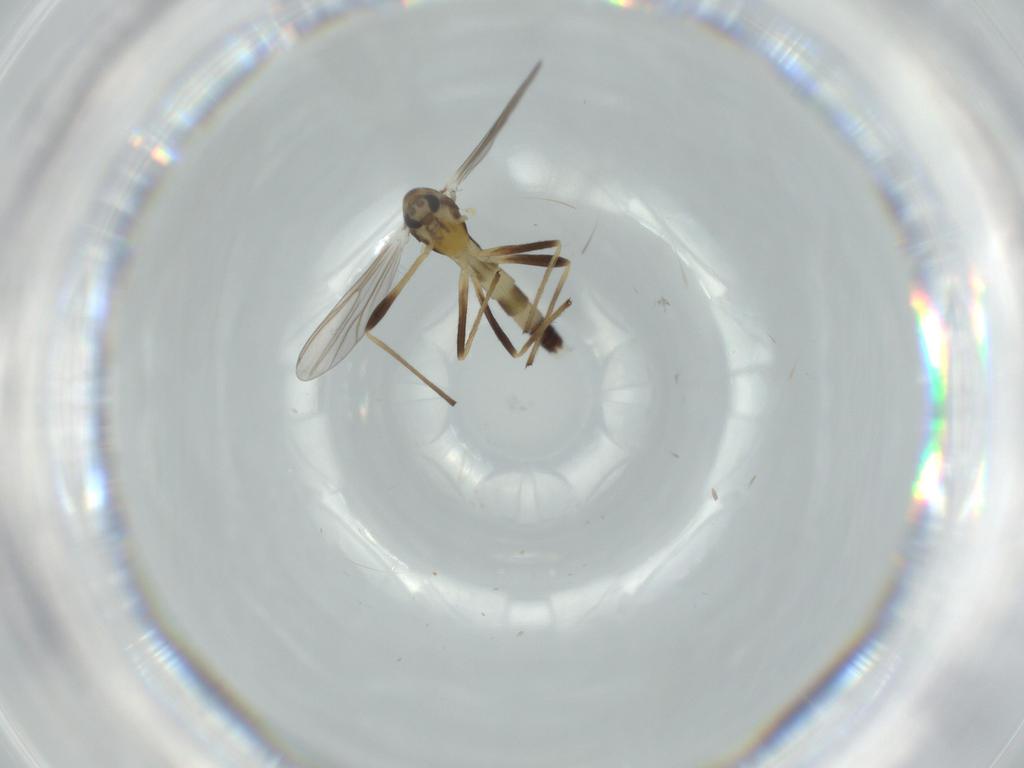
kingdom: Animalia
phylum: Arthropoda
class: Insecta
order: Diptera
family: Chironomidae
